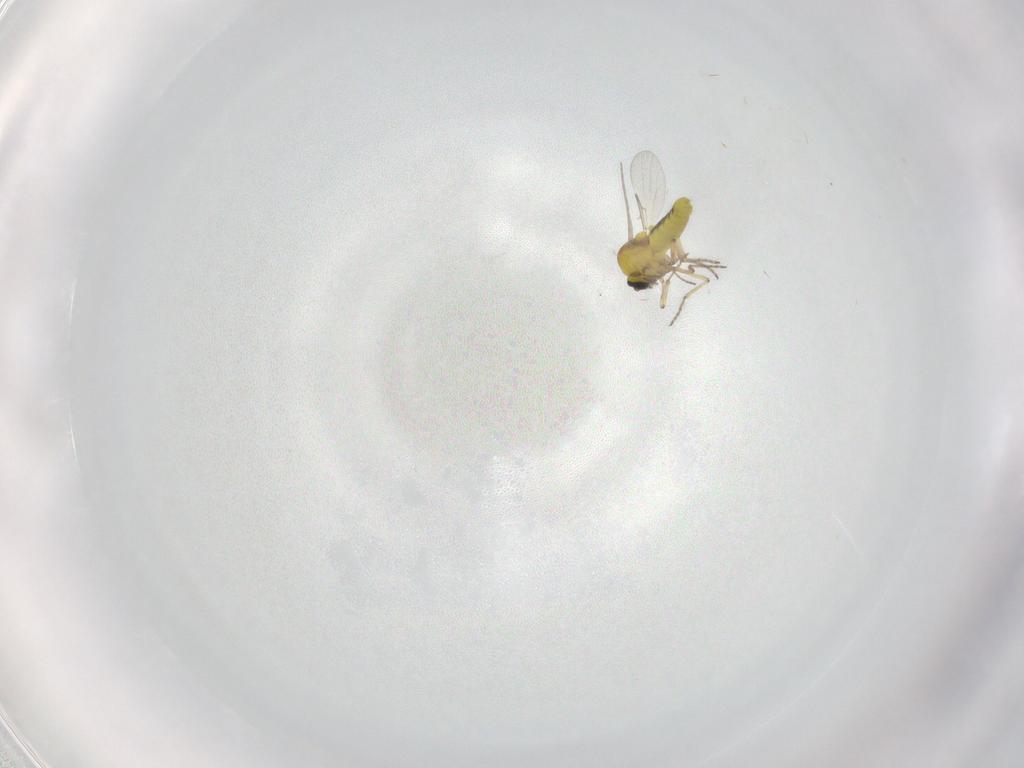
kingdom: Animalia
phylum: Arthropoda
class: Insecta
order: Diptera
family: Ceratopogonidae
